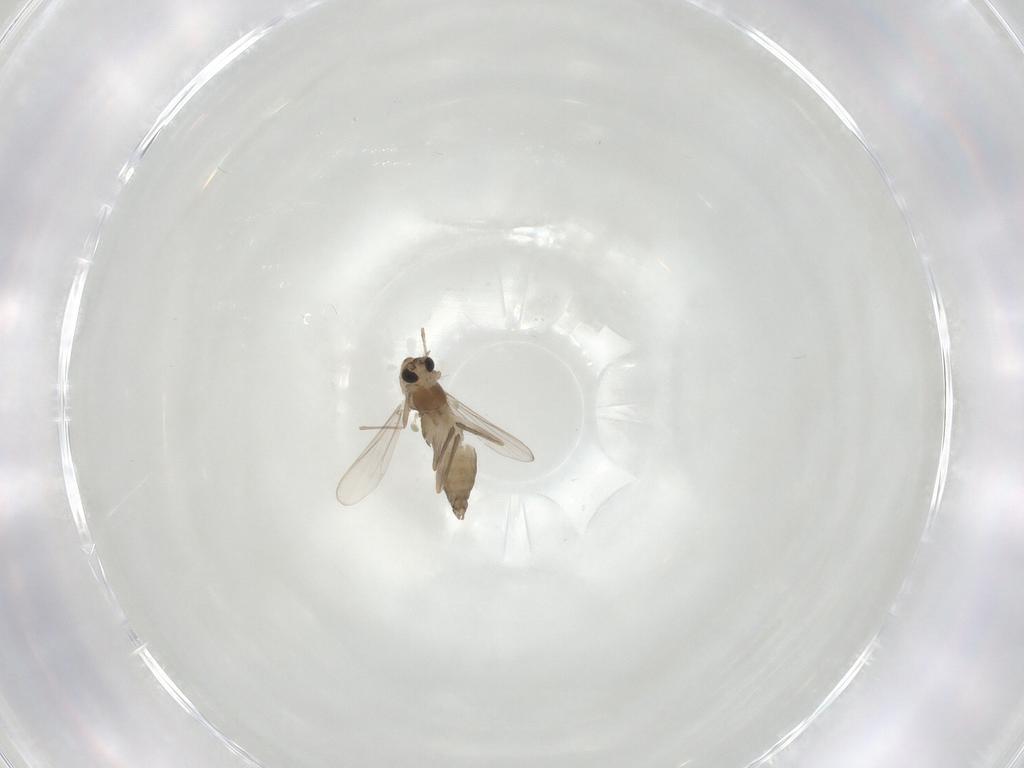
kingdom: Animalia
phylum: Arthropoda
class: Insecta
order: Diptera
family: Chironomidae
